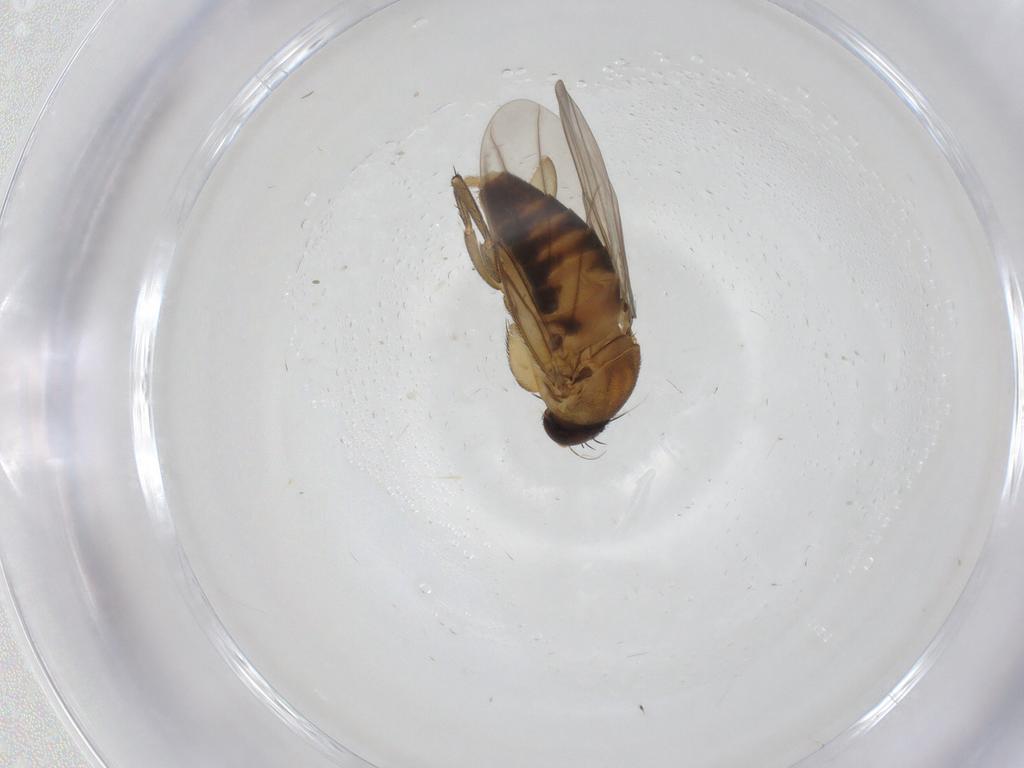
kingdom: Animalia
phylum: Arthropoda
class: Insecta
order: Diptera
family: Phoridae
